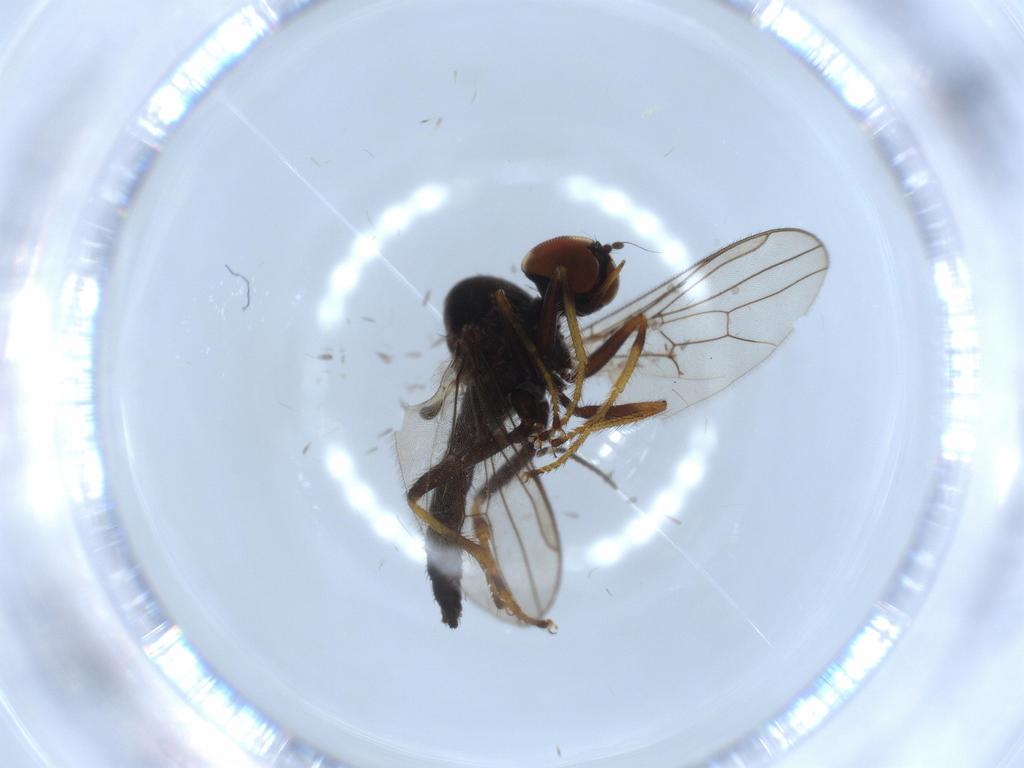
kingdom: Animalia
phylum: Arthropoda
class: Insecta
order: Diptera
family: Hybotidae
